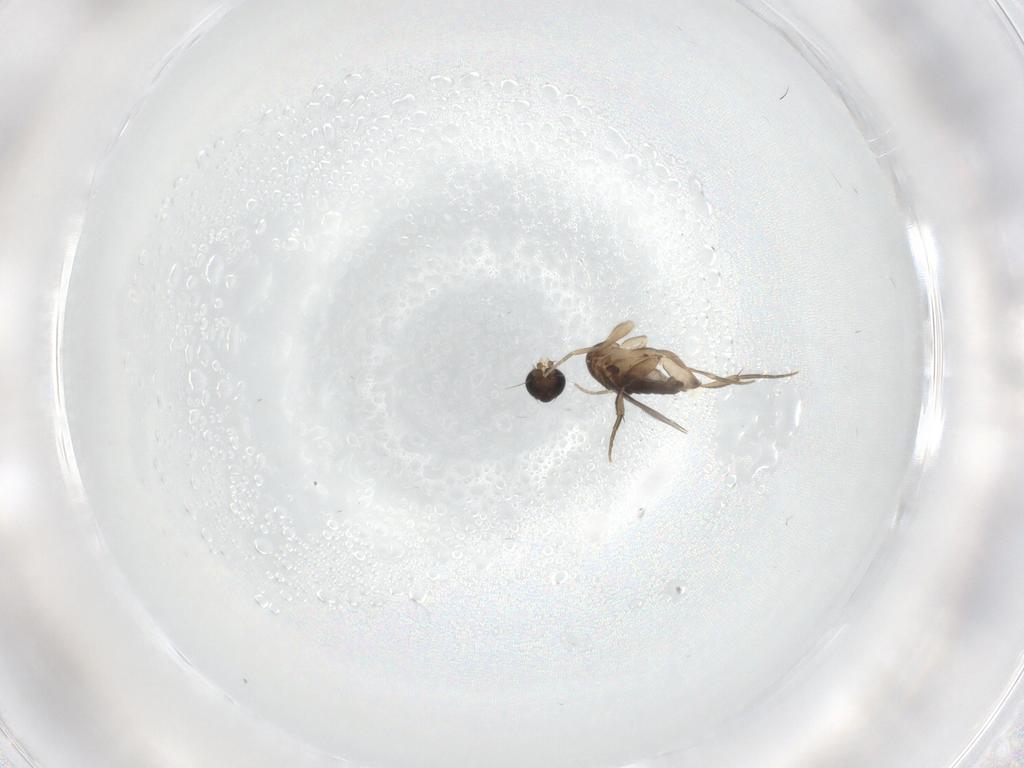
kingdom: Animalia
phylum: Arthropoda
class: Insecta
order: Diptera
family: Phoridae
